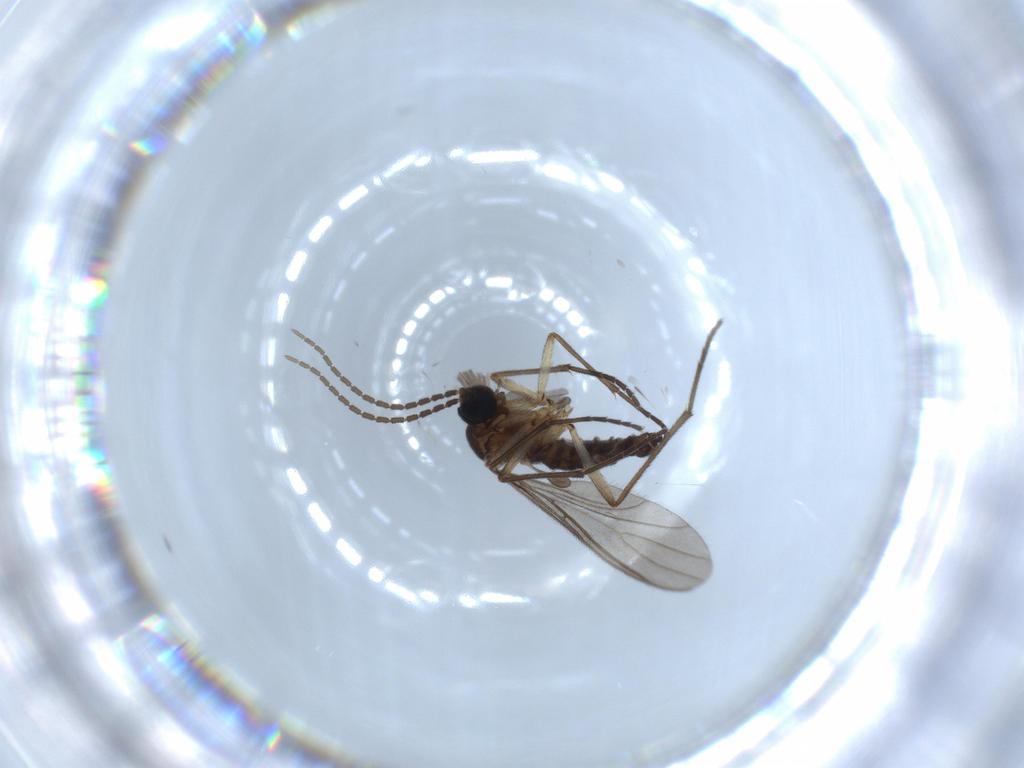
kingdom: Animalia
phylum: Arthropoda
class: Insecta
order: Diptera
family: Sciaridae
